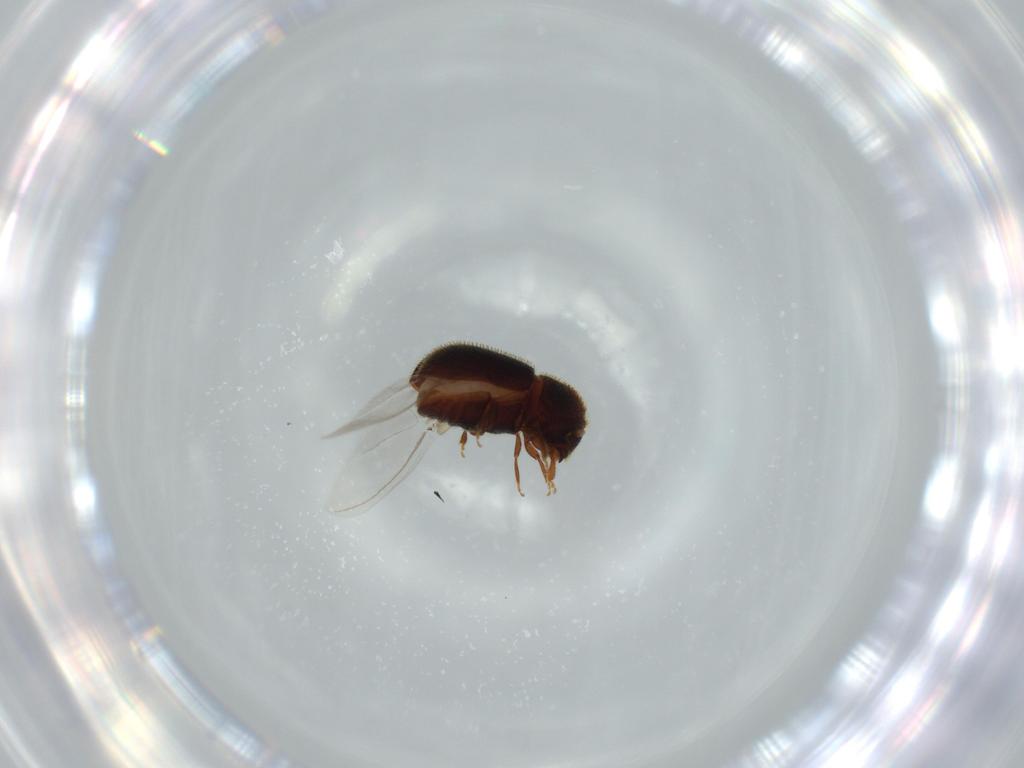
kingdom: Animalia
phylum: Arthropoda
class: Insecta
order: Coleoptera
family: Curculionidae
